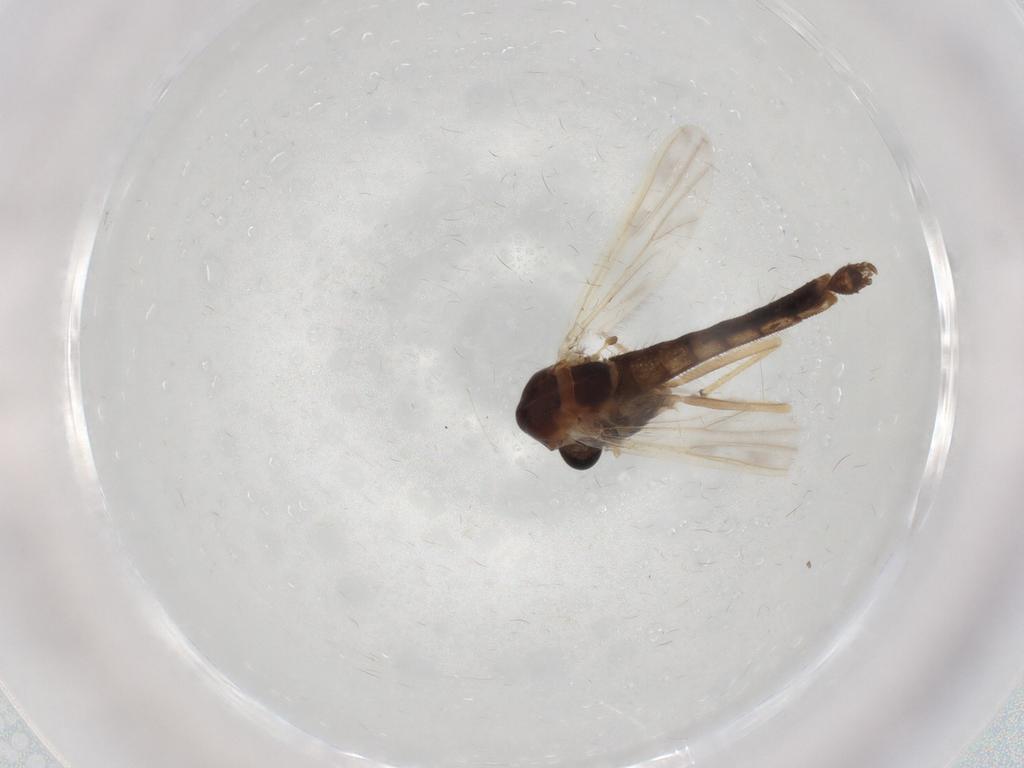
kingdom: Animalia
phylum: Arthropoda
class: Insecta
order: Diptera
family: Chironomidae
